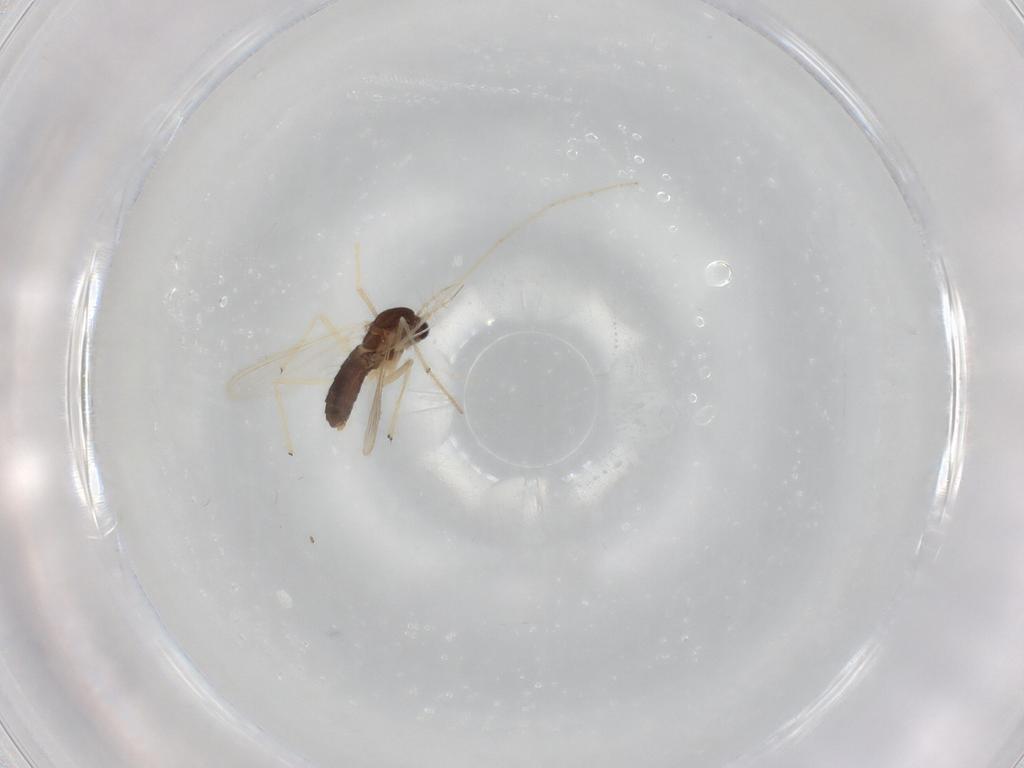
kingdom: Animalia
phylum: Arthropoda
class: Insecta
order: Diptera
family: Chironomidae
